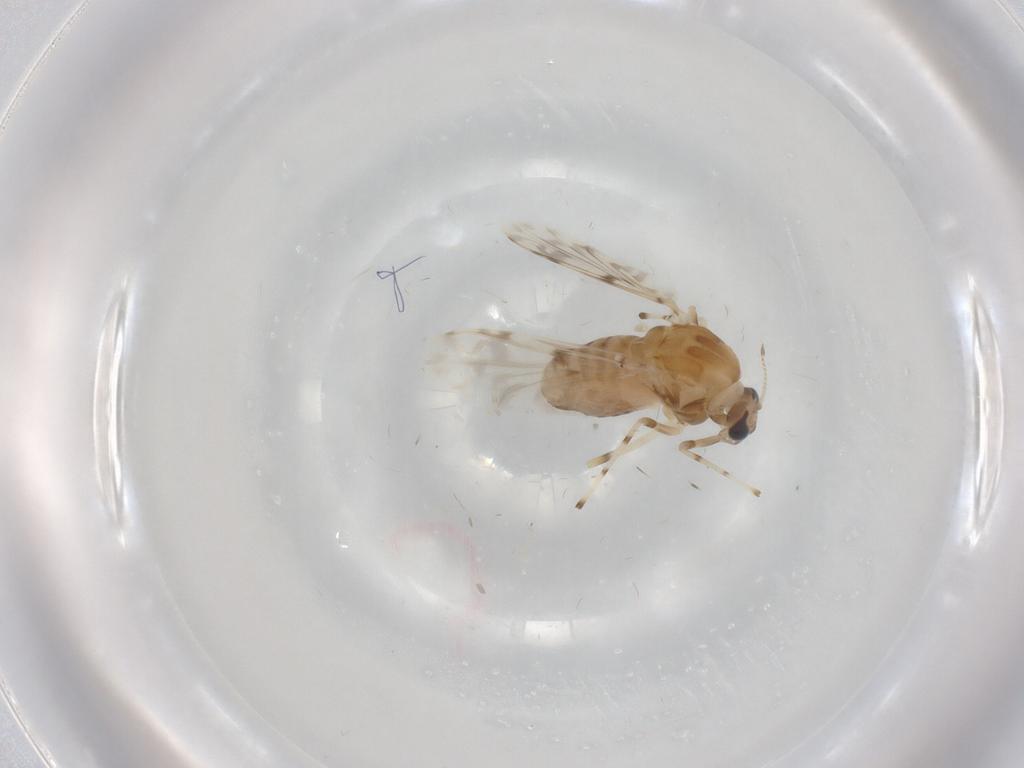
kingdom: Animalia
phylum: Arthropoda
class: Insecta
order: Diptera
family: Chironomidae
